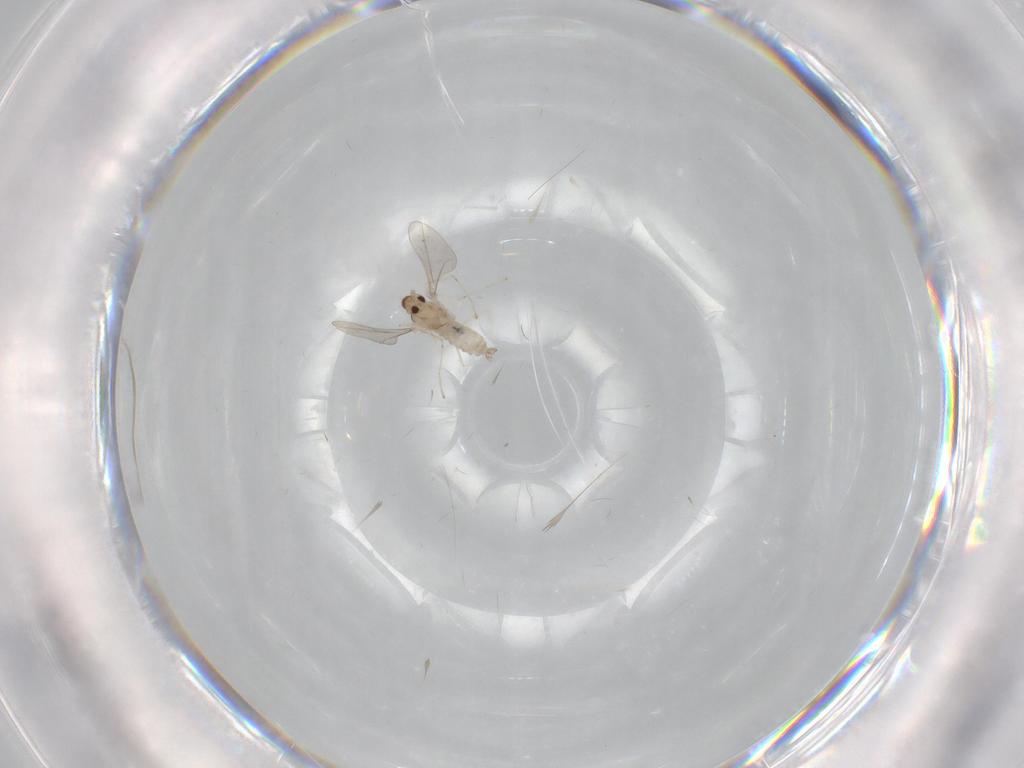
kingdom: Animalia
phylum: Arthropoda
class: Insecta
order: Diptera
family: Cecidomyiidae
